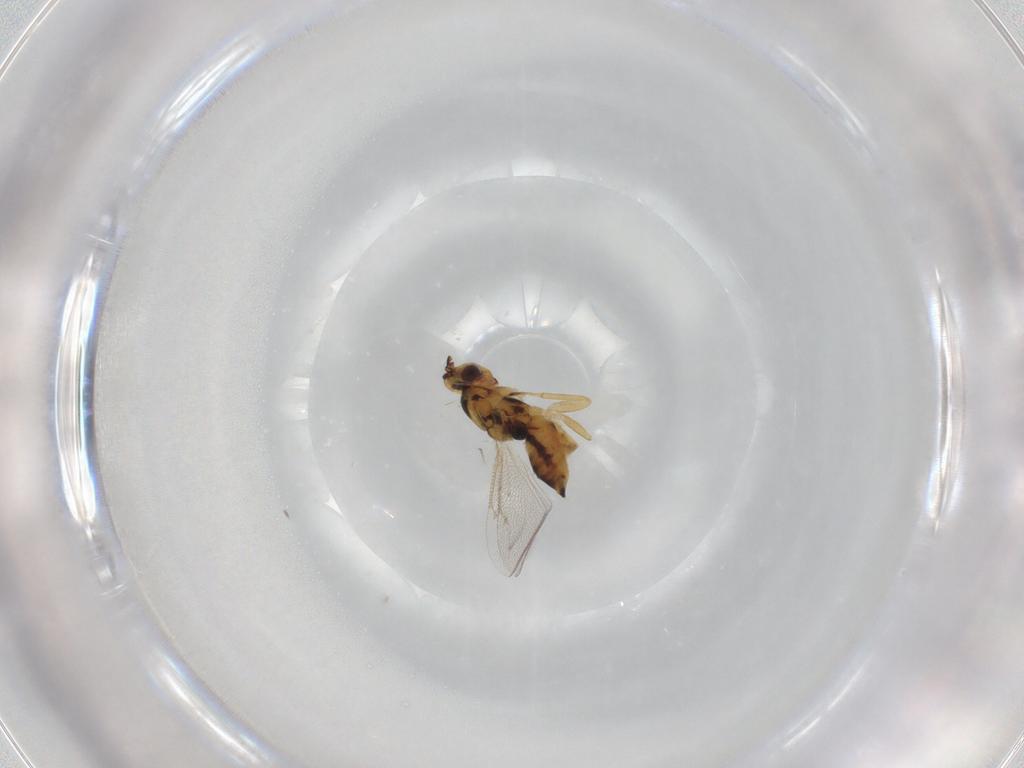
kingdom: Animalia
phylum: Arthropoda
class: Insecta
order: Hymenoptera
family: Eulophidae
